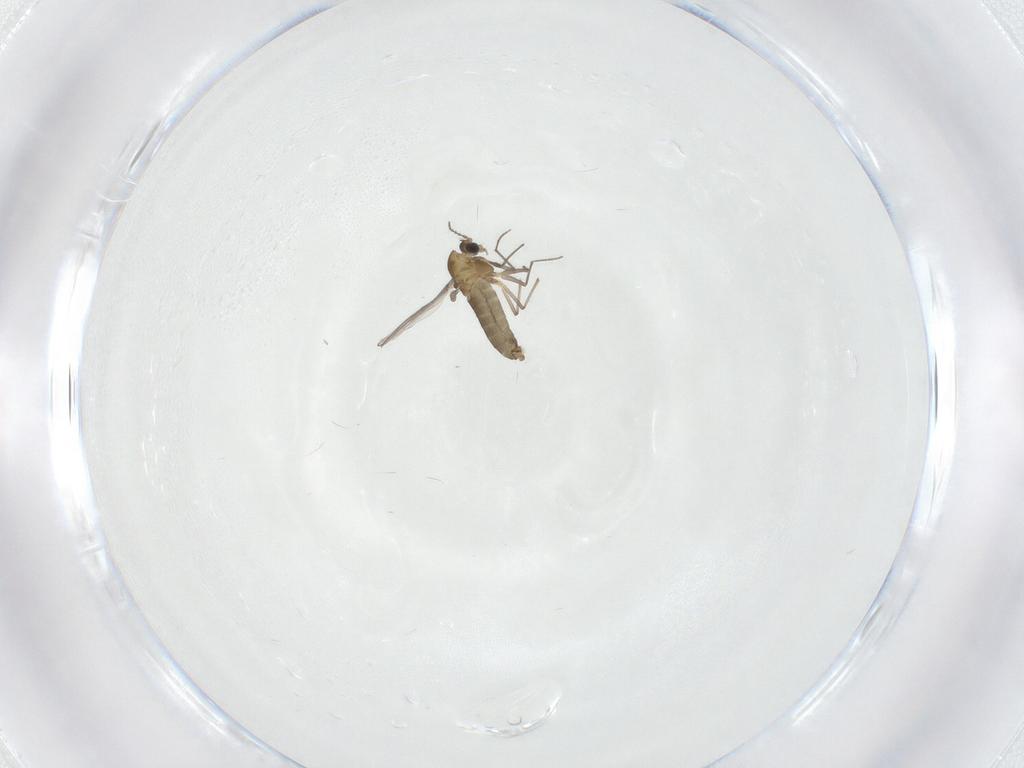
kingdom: Animalia
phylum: Arthropoda
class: Insecta
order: Diptera
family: Chironomidae
